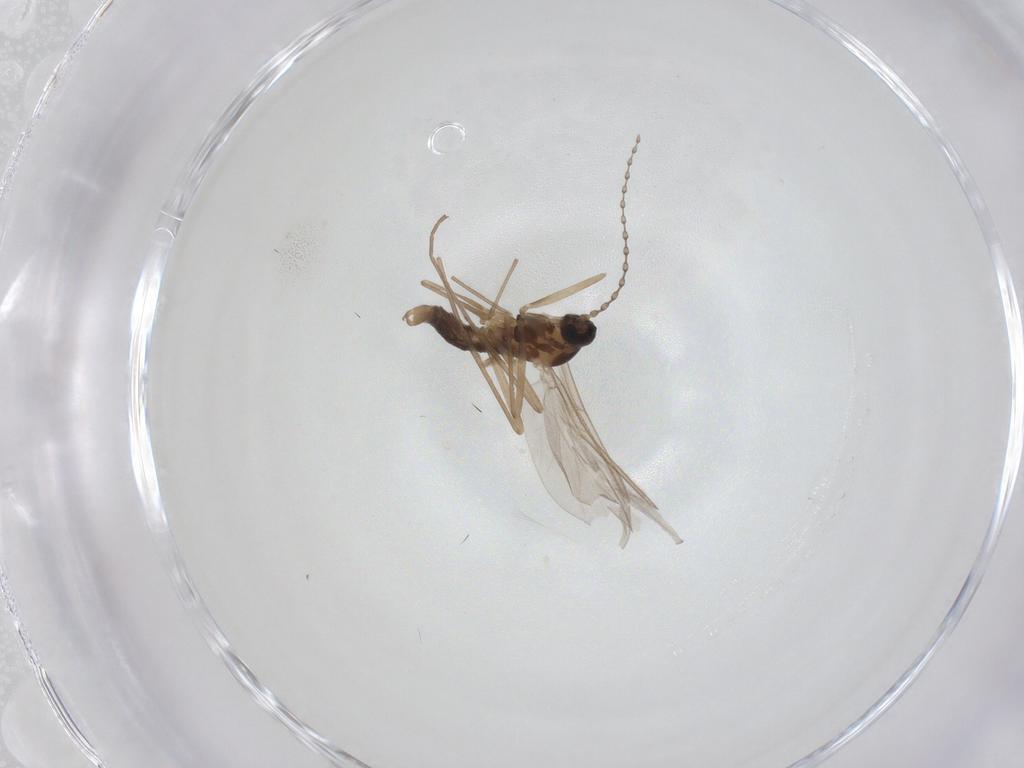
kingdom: Animalia
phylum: Arthropoda
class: Insecta
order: Diptera
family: Cecidomyiidae
